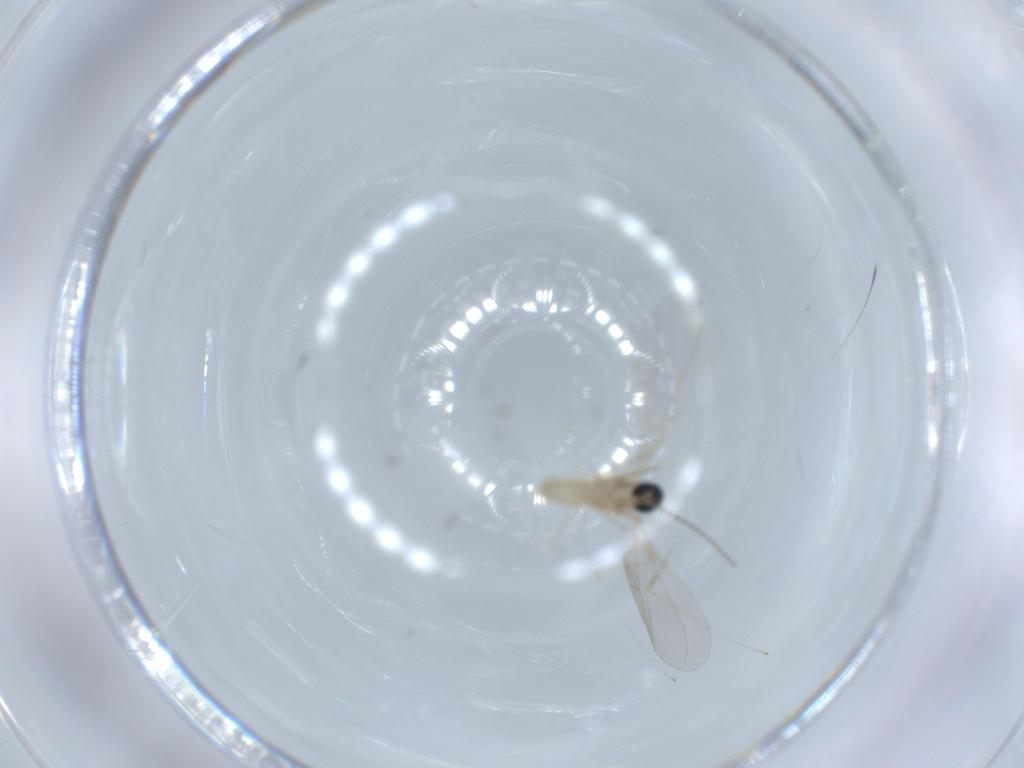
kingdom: Animalia
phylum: Arthropoda
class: Insecta
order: Diptera
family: Cecidomyiidae
